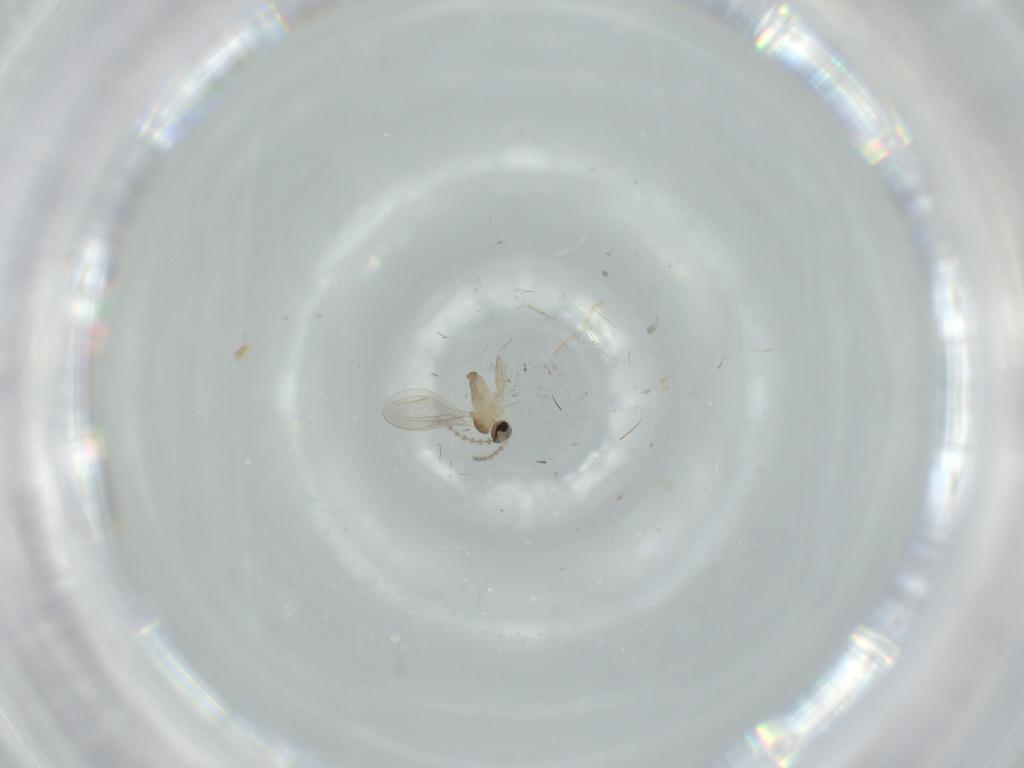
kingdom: Animalia
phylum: Arthropoda
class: Insecta
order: Diptera
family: Cecidomyiidae
